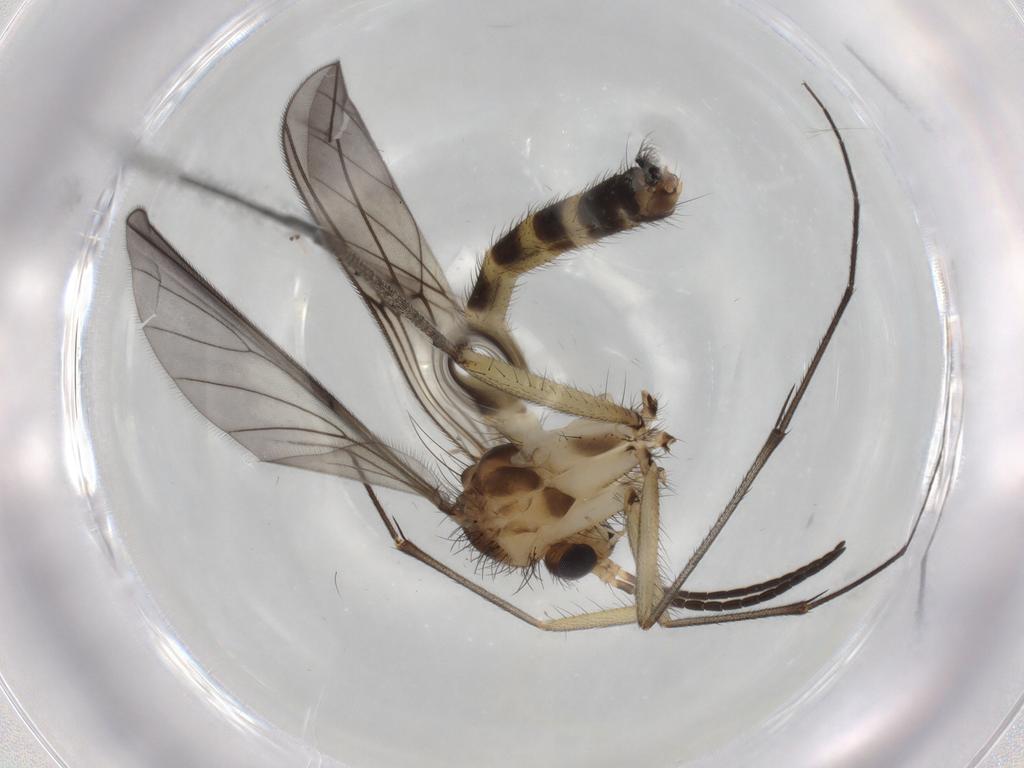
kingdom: Animalia
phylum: Arthropoda
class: Insecta
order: Diptera
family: Mycetophilidae
